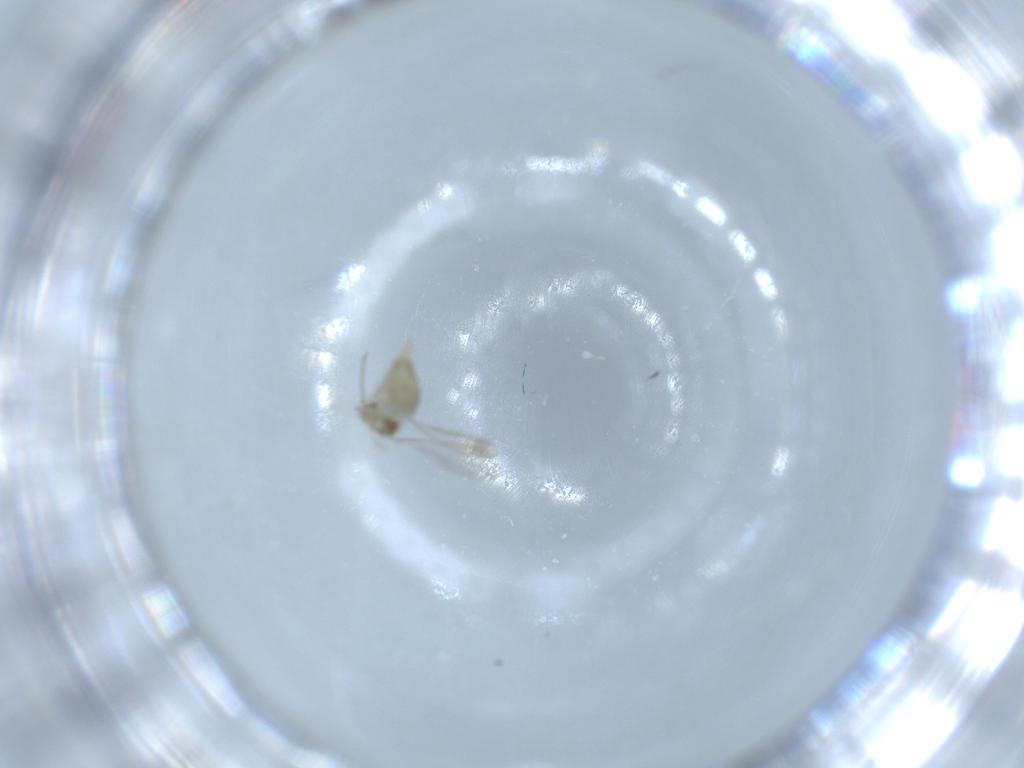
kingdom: Animalia
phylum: Arthropoda
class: Insecta
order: Diptera
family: Cecidomyiidae
